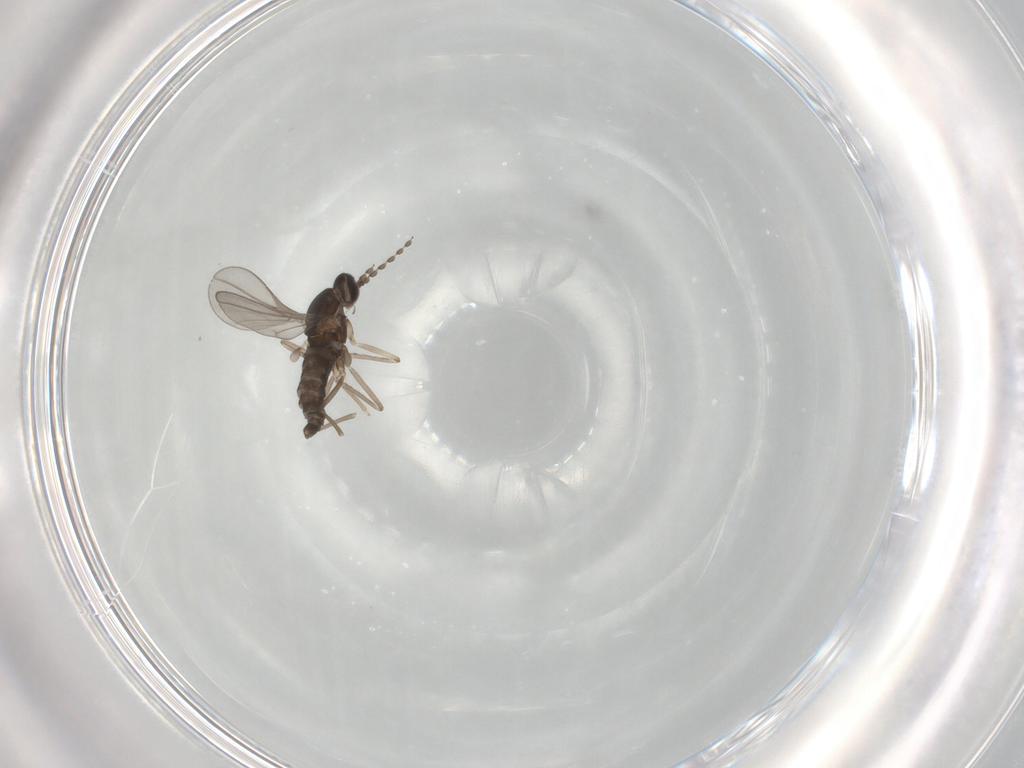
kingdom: Animalia
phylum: Arthropoda
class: Insecta
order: Diptera
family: Cecidomyiidae
